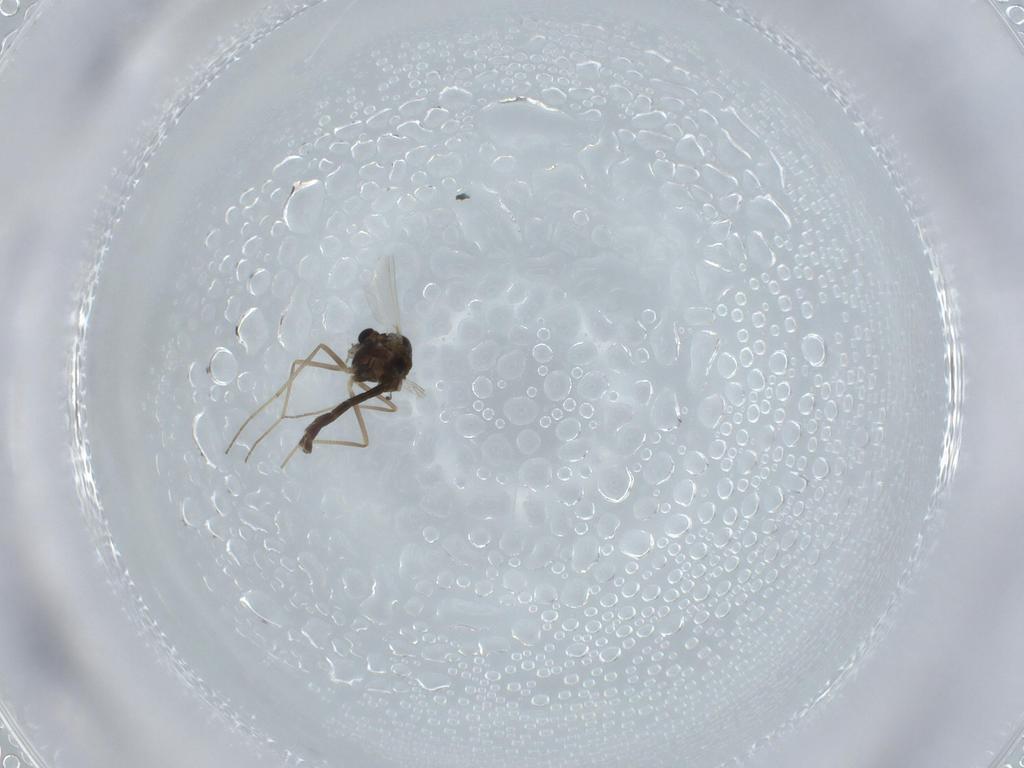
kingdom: Animalia
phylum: Arthropoda
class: Insecta
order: Diptera
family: Chironomidae
